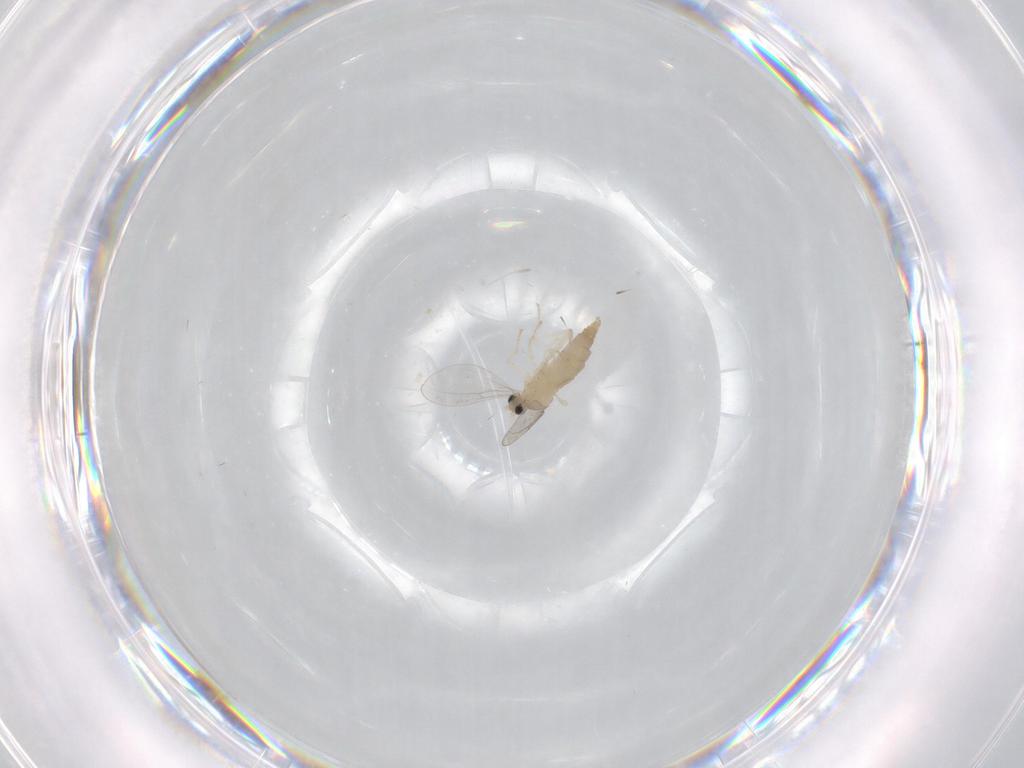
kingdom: Animalia
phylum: Arthropoda
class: Insecta
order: Diptera
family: Cecidomyiidae
